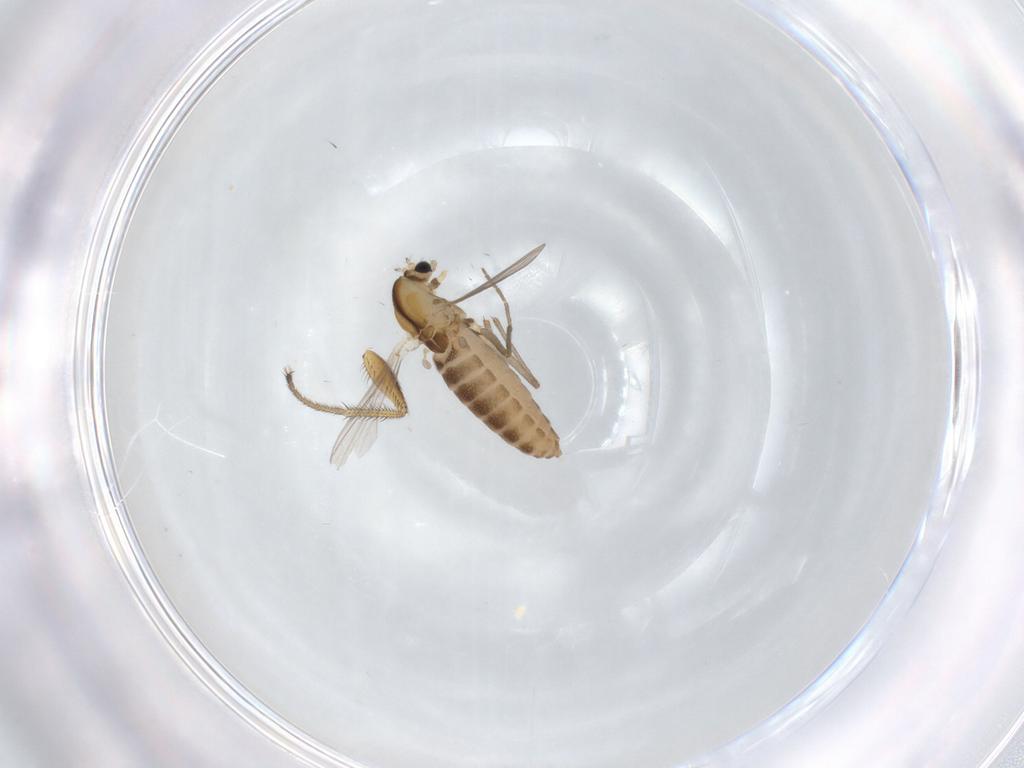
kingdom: Animalia
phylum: Arthropoda
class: Insecta
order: Diptera
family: Chironomidae
